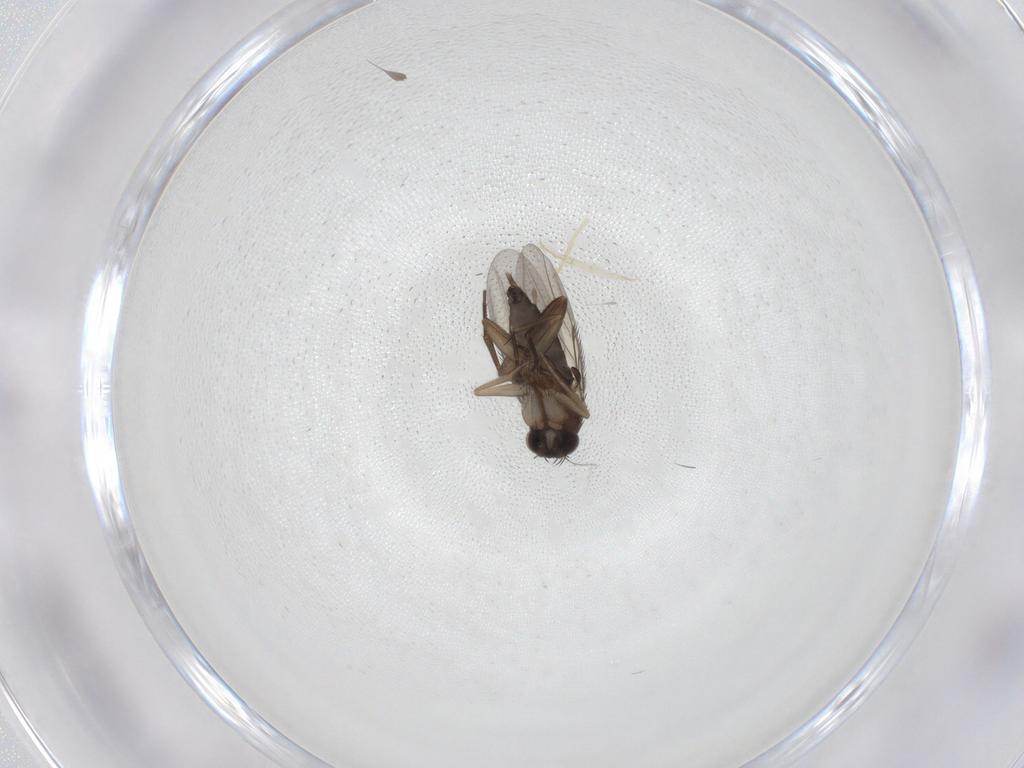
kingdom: Animalia
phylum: Arthropoda
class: Insecta
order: Diptera
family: Phoridae
